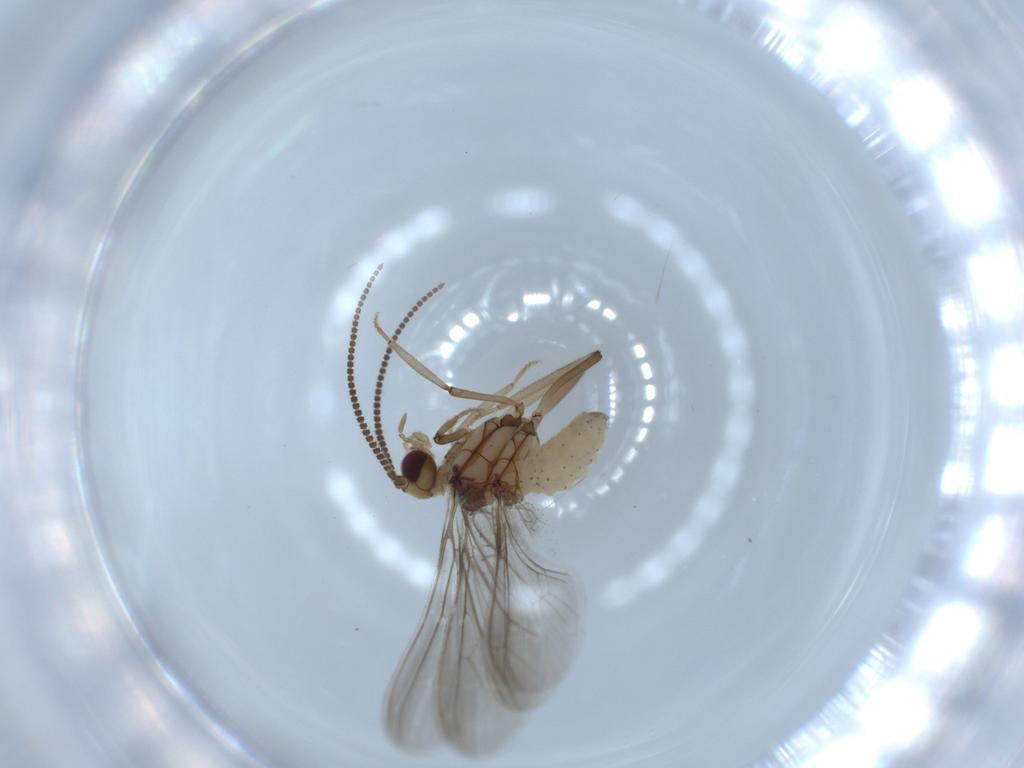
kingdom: Animalia
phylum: Arthropoda
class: Insecta
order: Neuroptera
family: Coniopterygidae
